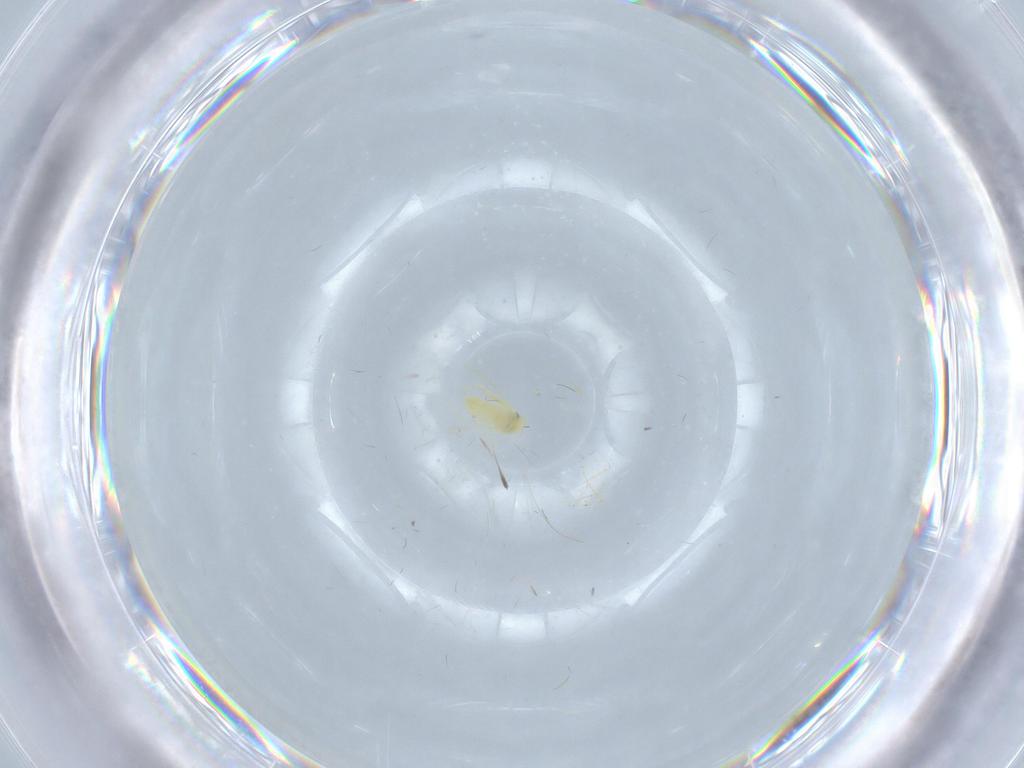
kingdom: Animalia
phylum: Arthropoda
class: Insecta
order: Hemiptera
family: Aleyrodidae
